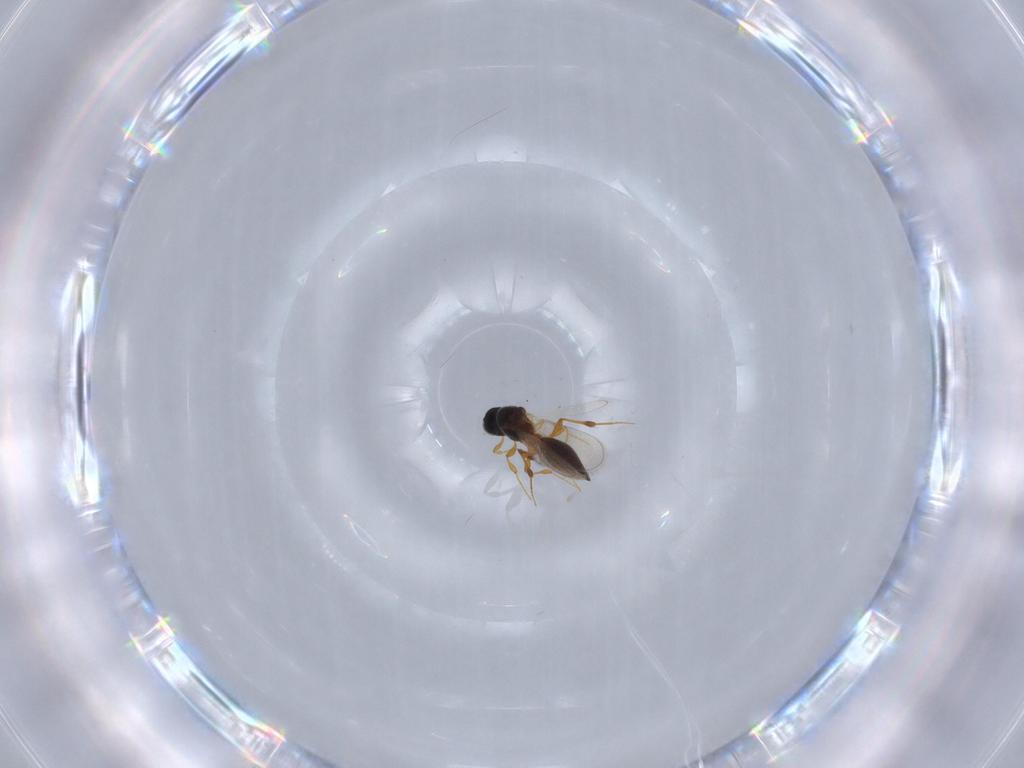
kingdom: Animalia
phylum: Arthropoda
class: Insecta
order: Hymenoptera
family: Platygastridae
